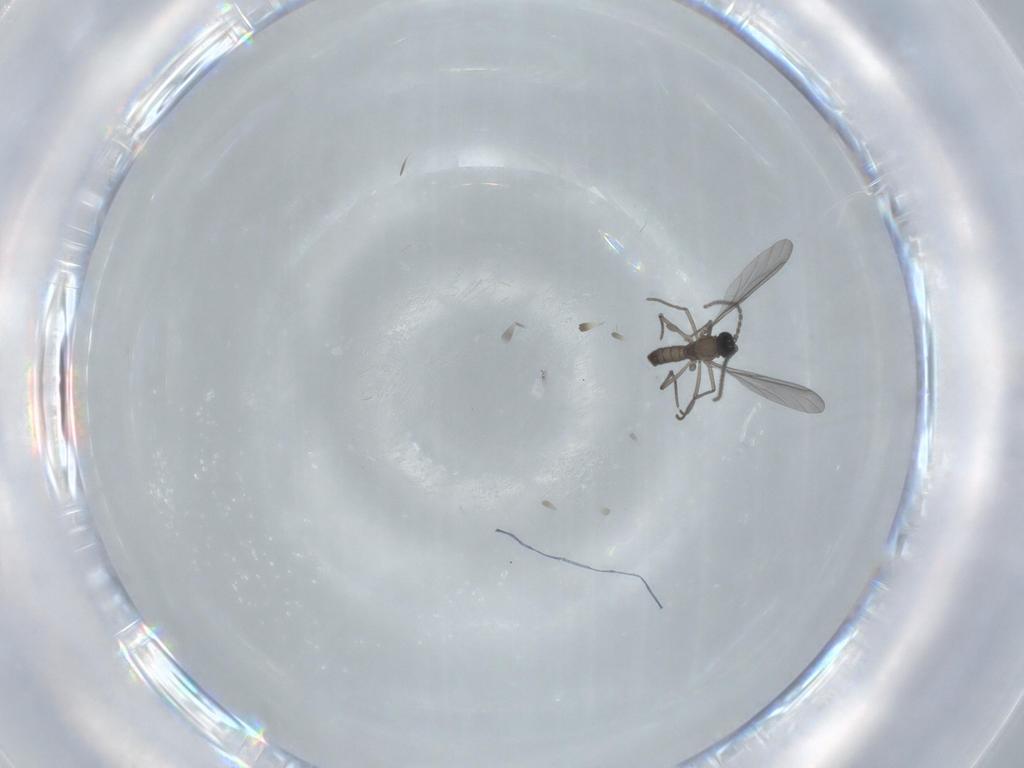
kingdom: Animalia
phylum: Arthropoda
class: Insecta
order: Diptera
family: Sciaridae
